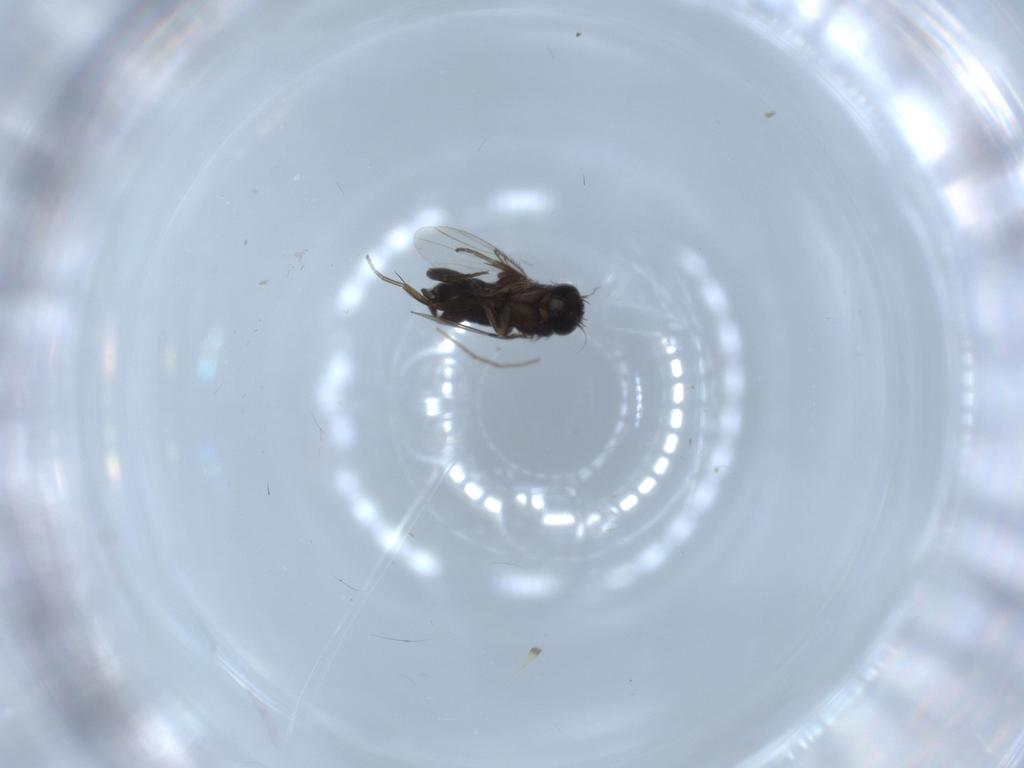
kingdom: Animalia
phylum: Arthropoda
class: Insecta
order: Diptera
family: Phoridae
